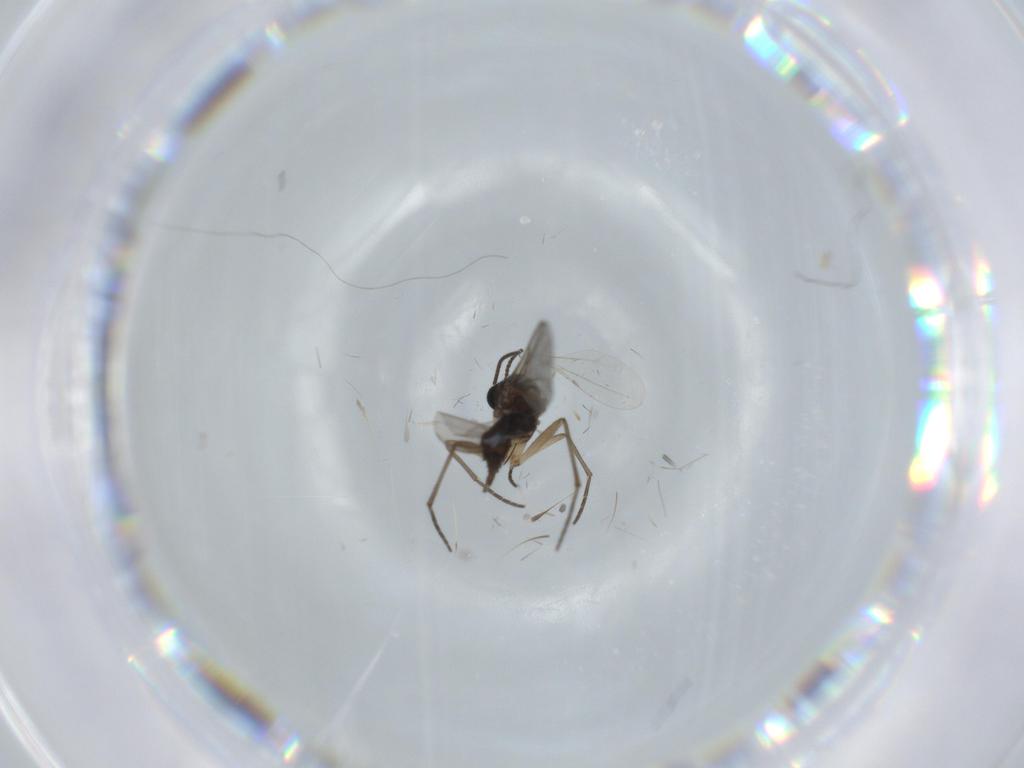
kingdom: Animalia
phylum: Arthropoda
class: Insecta
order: Diptera
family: Sciaridae
